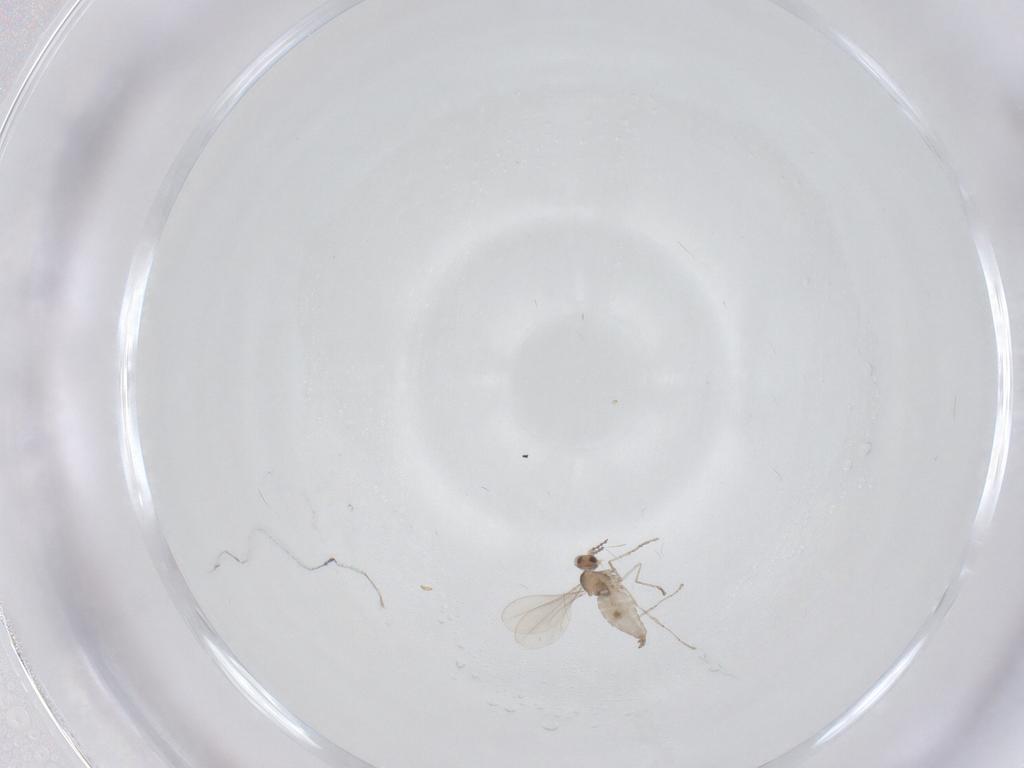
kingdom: Animalia
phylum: Arthropoda
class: Insecta
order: Diptera
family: Cecidomyiidae
